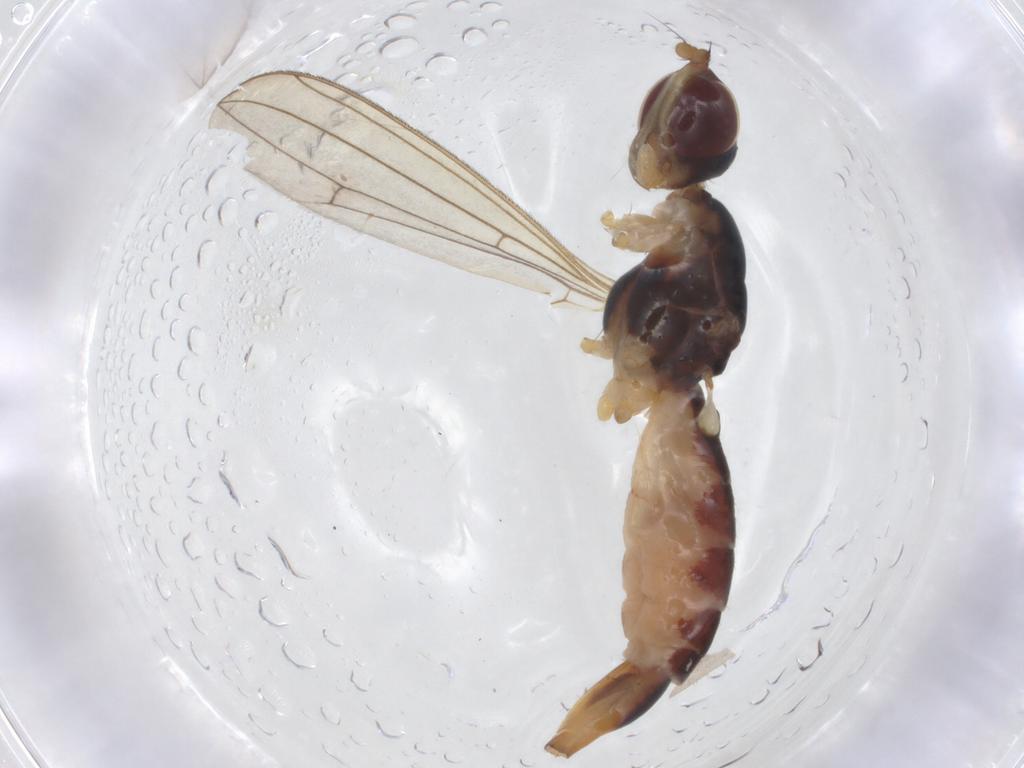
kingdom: Animalia
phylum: Arthropoda
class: Insecta
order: Diptera
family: Micropezidae
